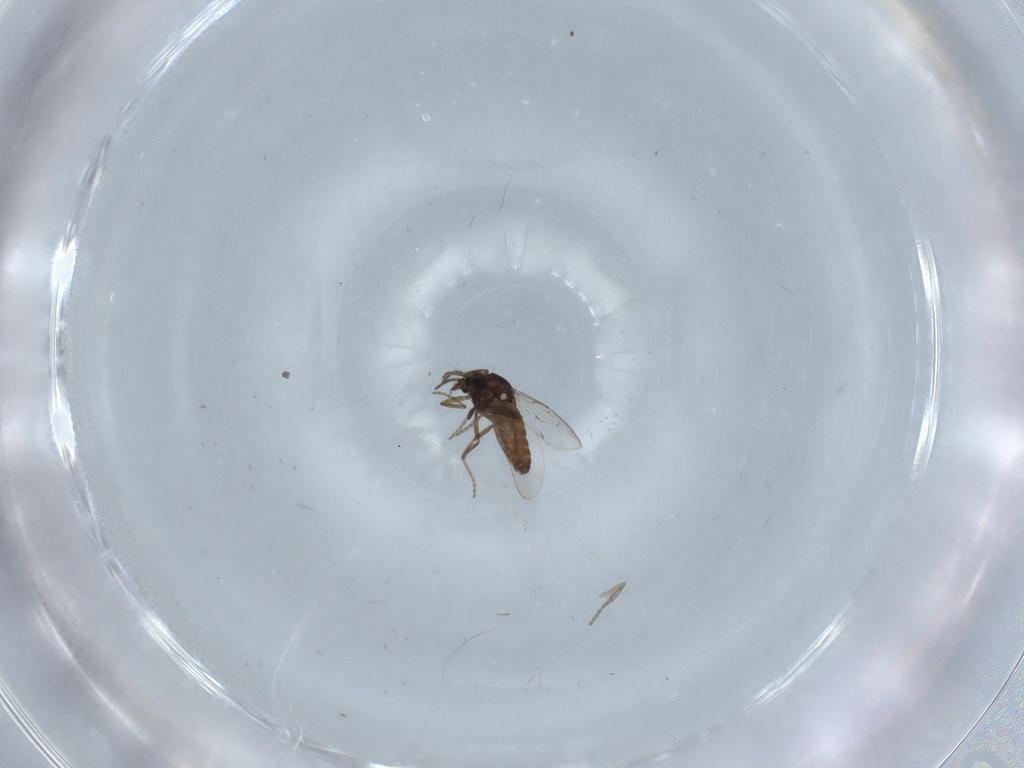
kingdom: Animalia
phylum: Arthropoda
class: Insecta
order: Diptera
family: Ceratopogonidae
